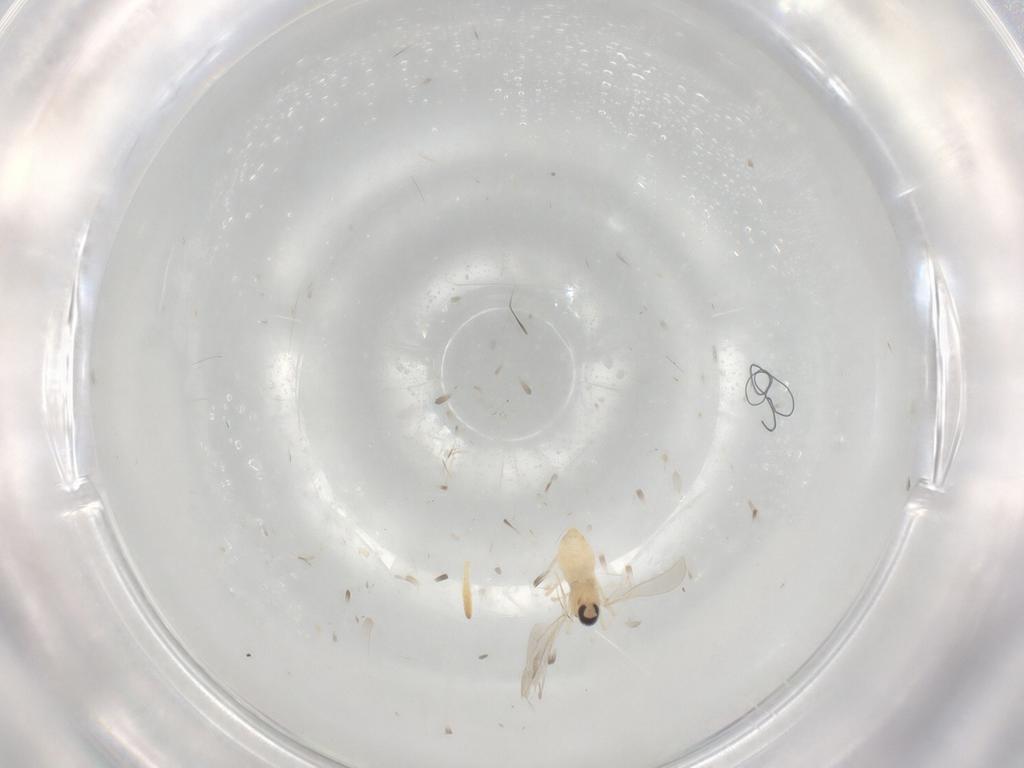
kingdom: Animalia
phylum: Arthropoda
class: Insecta
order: Diptera
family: Cecidomyiidae
